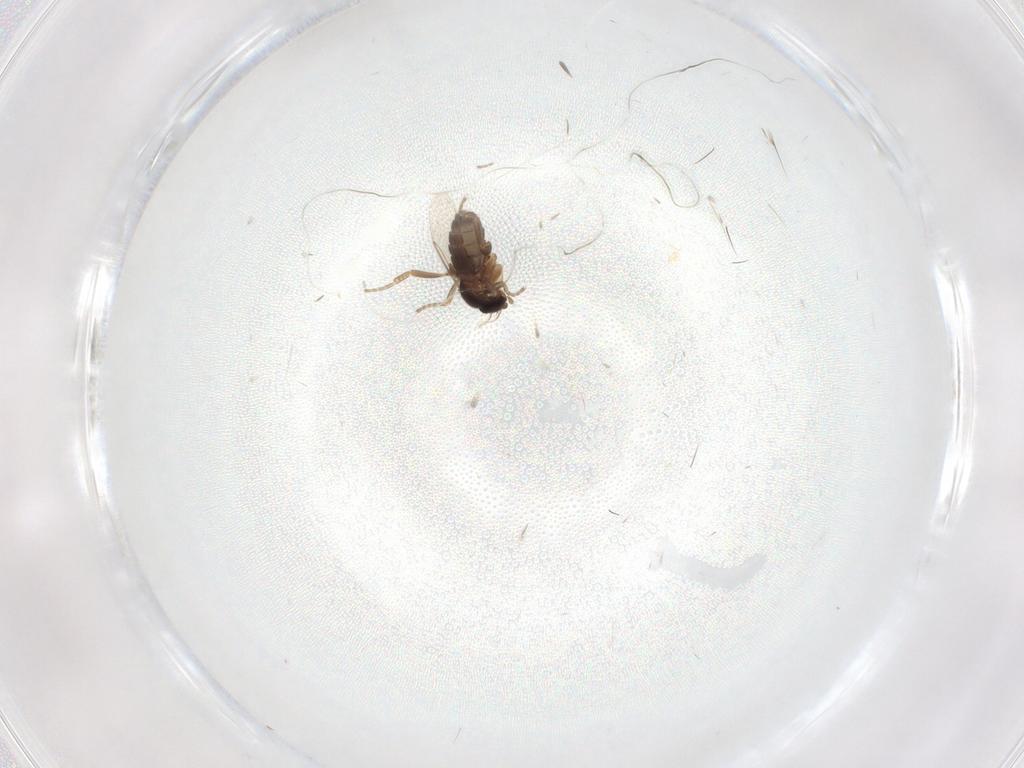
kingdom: Animalia
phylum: Arthropoda
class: Insecta
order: Diptera
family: Phoridae
